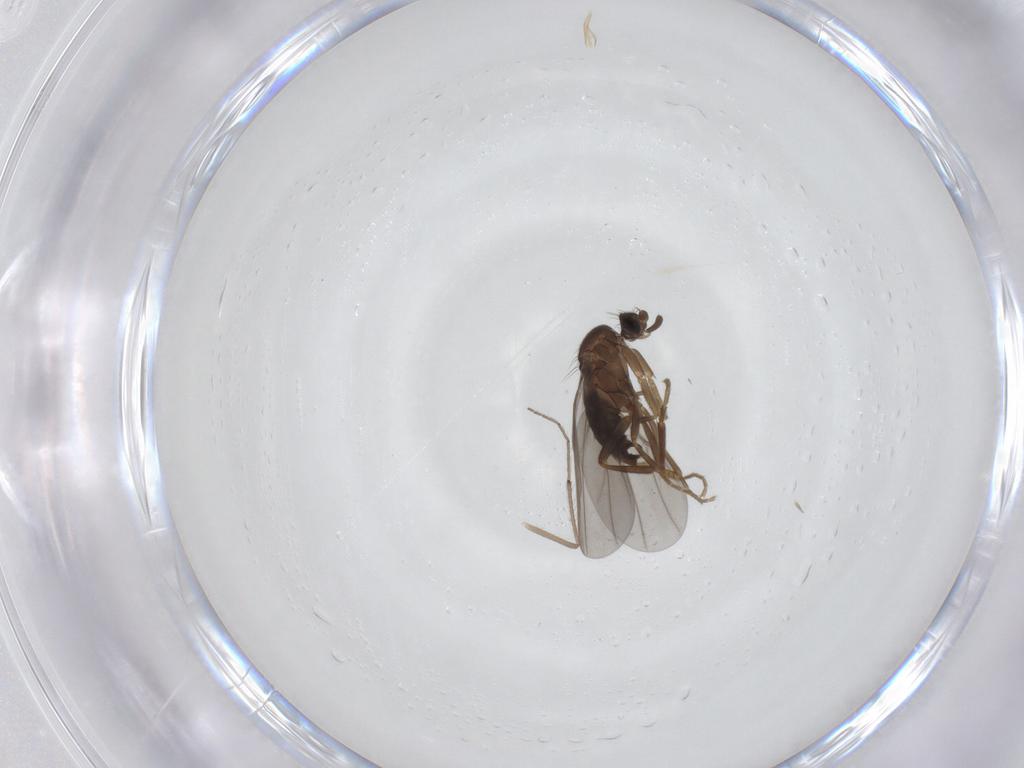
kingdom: Animalia
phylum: Arthropoda
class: Insecta
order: Diptera
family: Chironomidae
